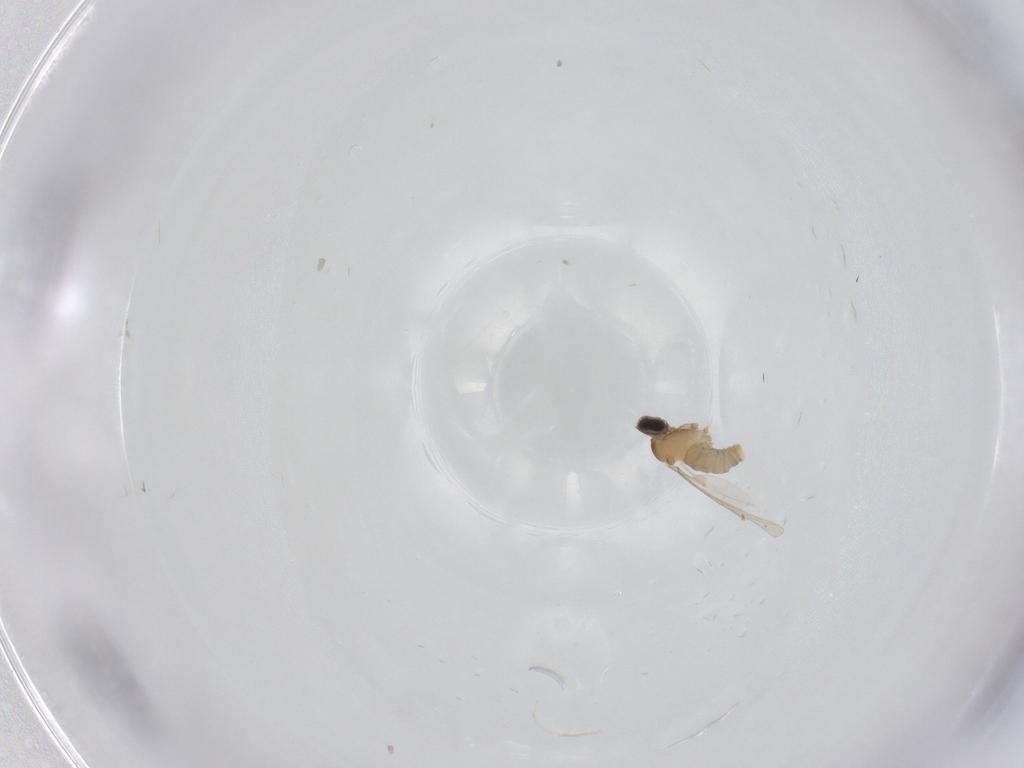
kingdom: Animalia
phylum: Arthropoda
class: Insecta
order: Diptera
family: Cecidomyiidae
